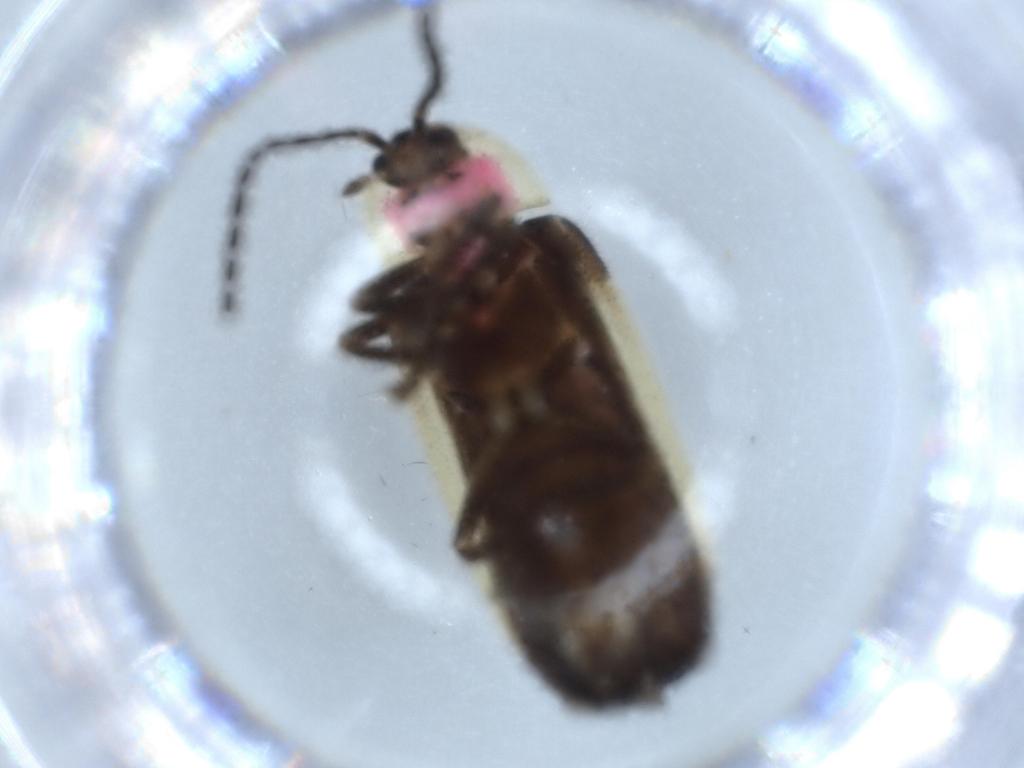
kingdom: Animalia
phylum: Arthropoda
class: Insecta
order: Coleoptera
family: Lampyridae
